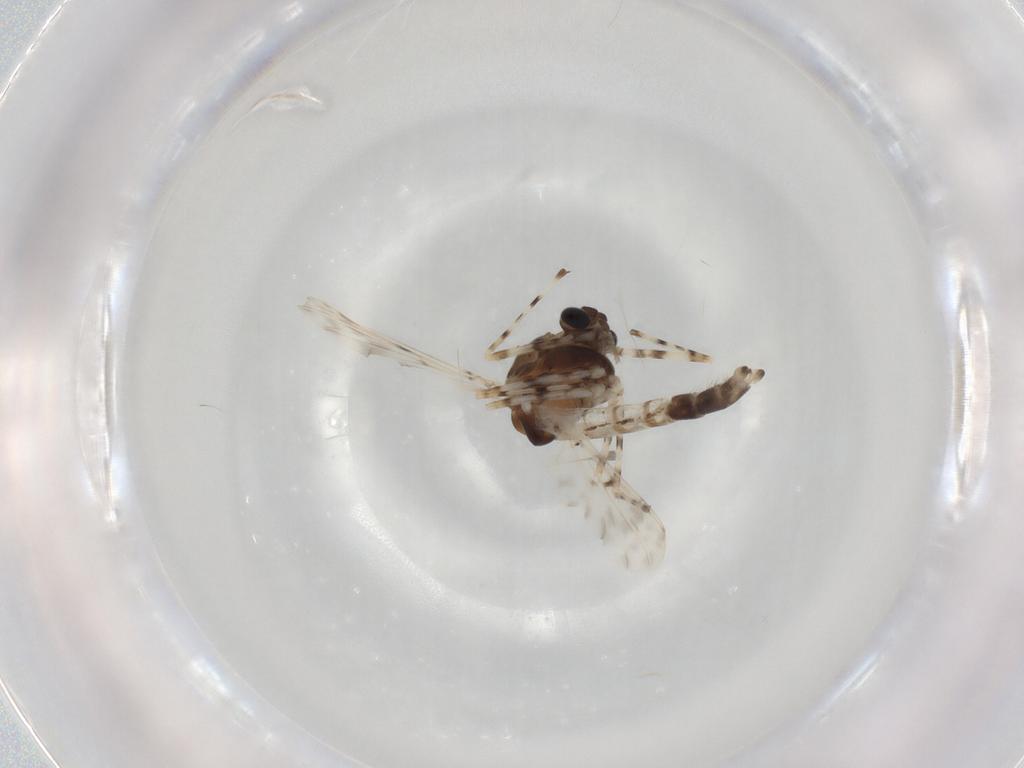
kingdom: Animalia
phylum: Arthropoda
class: Insecta
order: Diptera
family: Chironomidae
